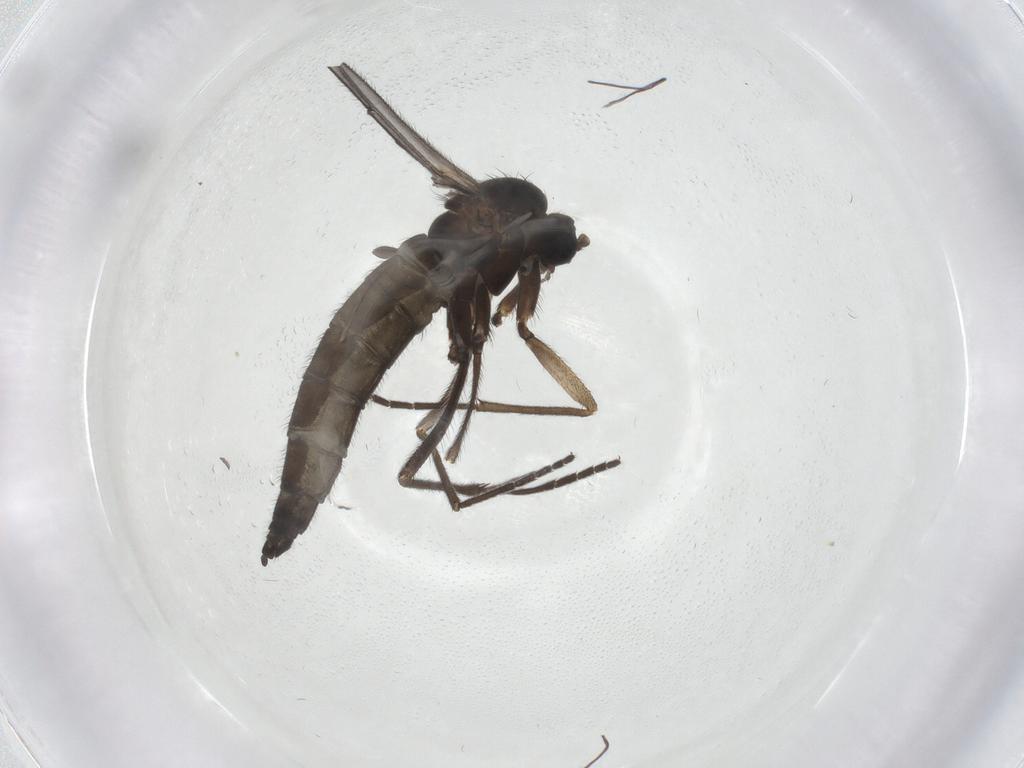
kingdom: Animalia
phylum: Arthropoda
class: Insecta
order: Diptera
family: Sciaridae
